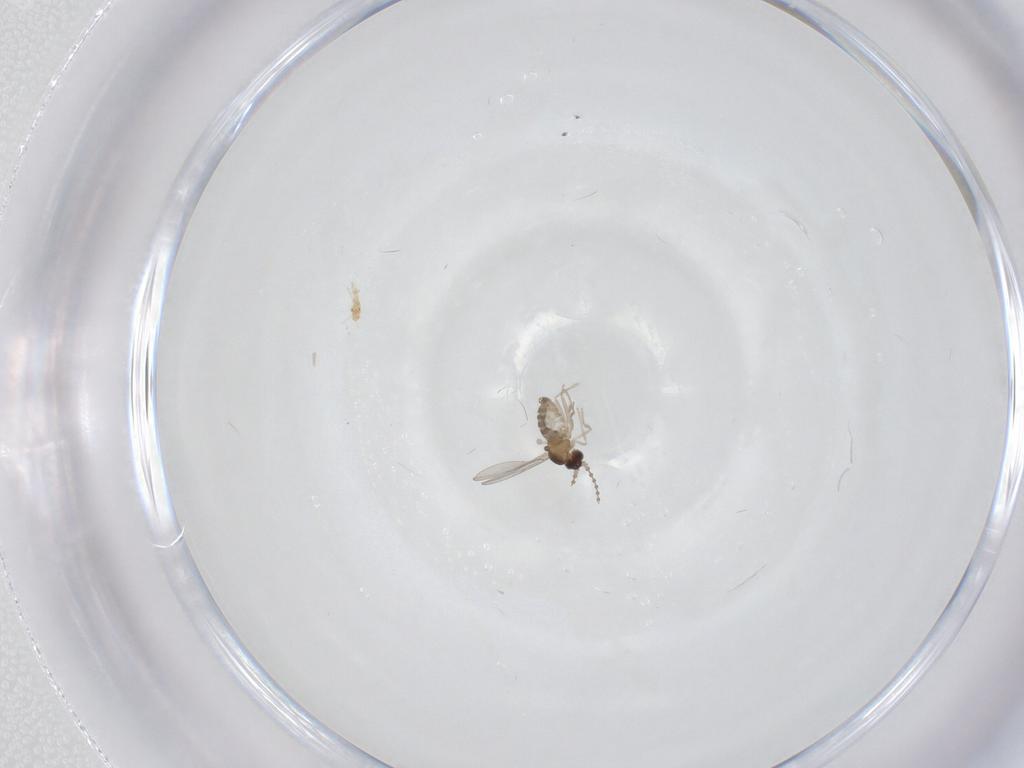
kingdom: Animalia
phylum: Arthropoda
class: Insecta
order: Diptera
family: Cecidomyiidae
